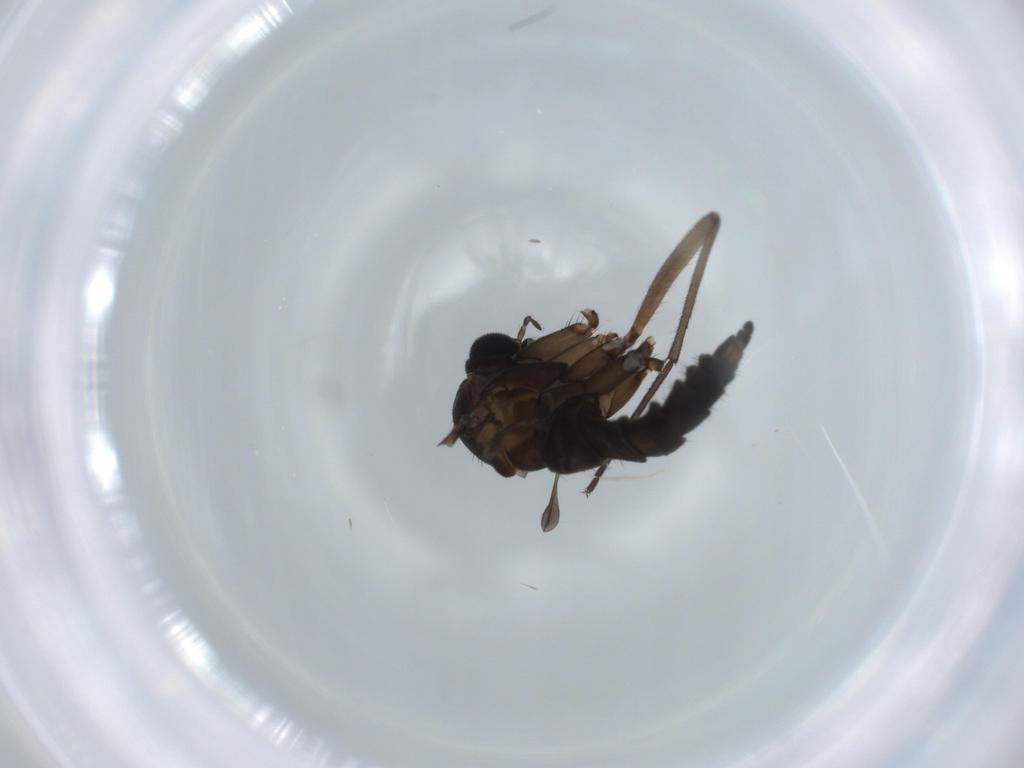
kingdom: Animalia
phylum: Arthropoda
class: Insecta
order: Diptera
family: Sciaridae
